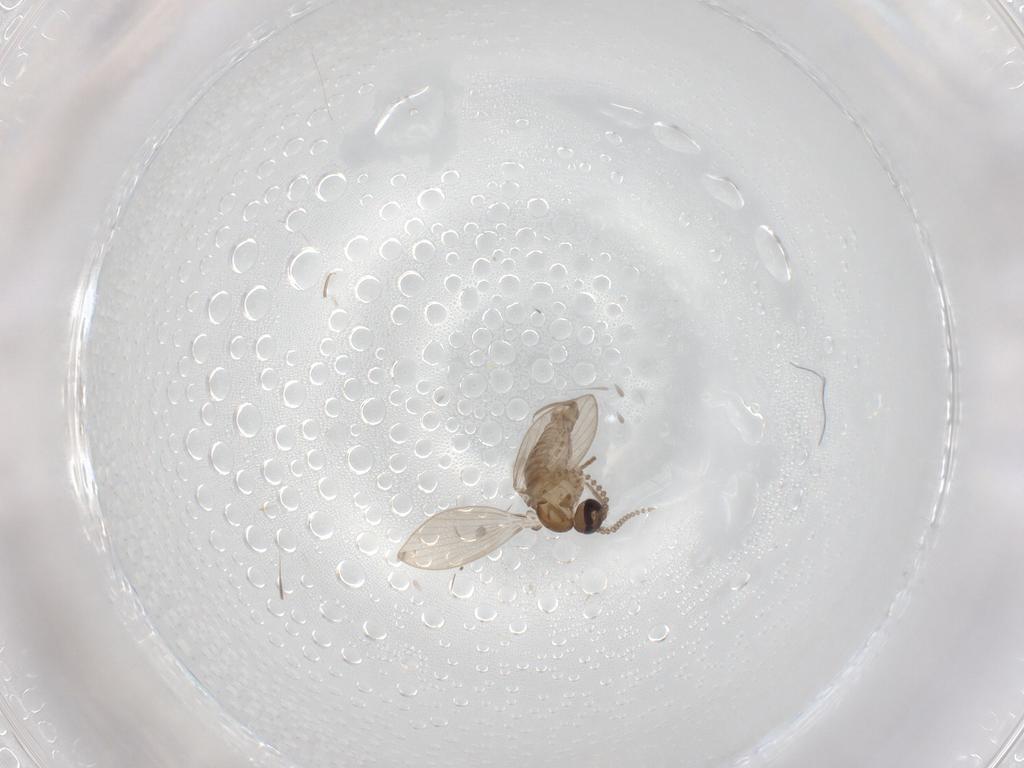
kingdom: Animalia
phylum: Arthropoda
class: Insecta
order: Diptera
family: Psychodidae
